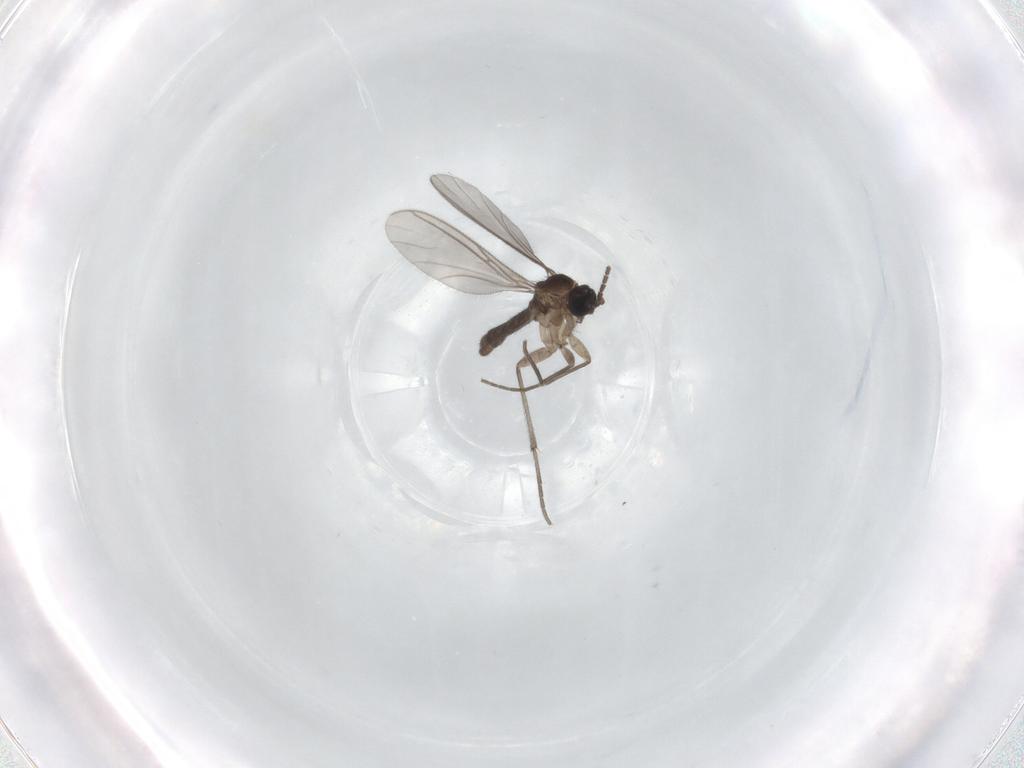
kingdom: Animalia
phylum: Arthropoda
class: Insecta
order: Diptera
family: Sciaridae
